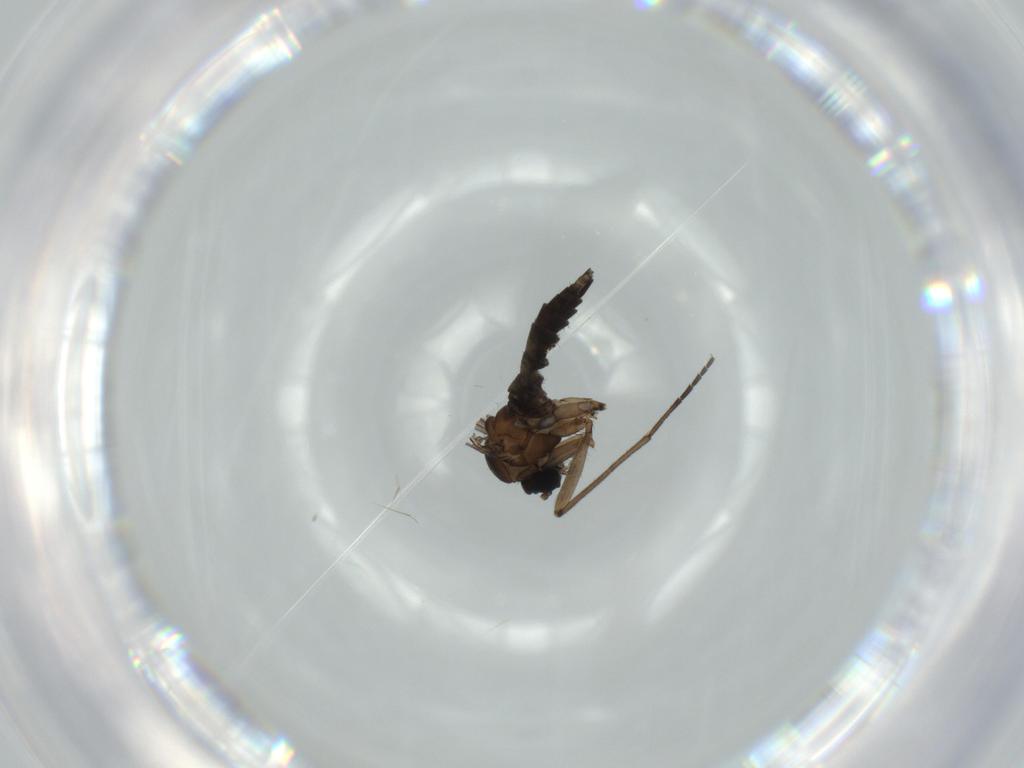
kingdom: Animalia
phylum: Arthropoda
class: Insecta
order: Diptera
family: Sciaridae
